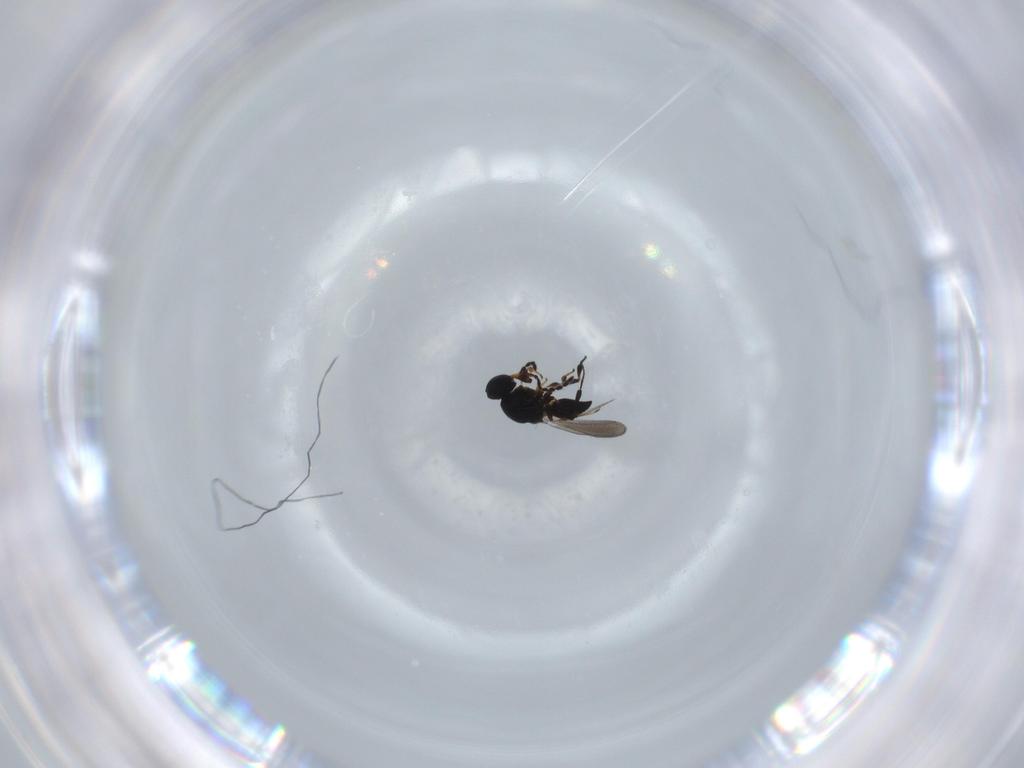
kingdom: Animalia
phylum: Arthropoda
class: Insecta
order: Hymenoptera
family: Platygastridae
